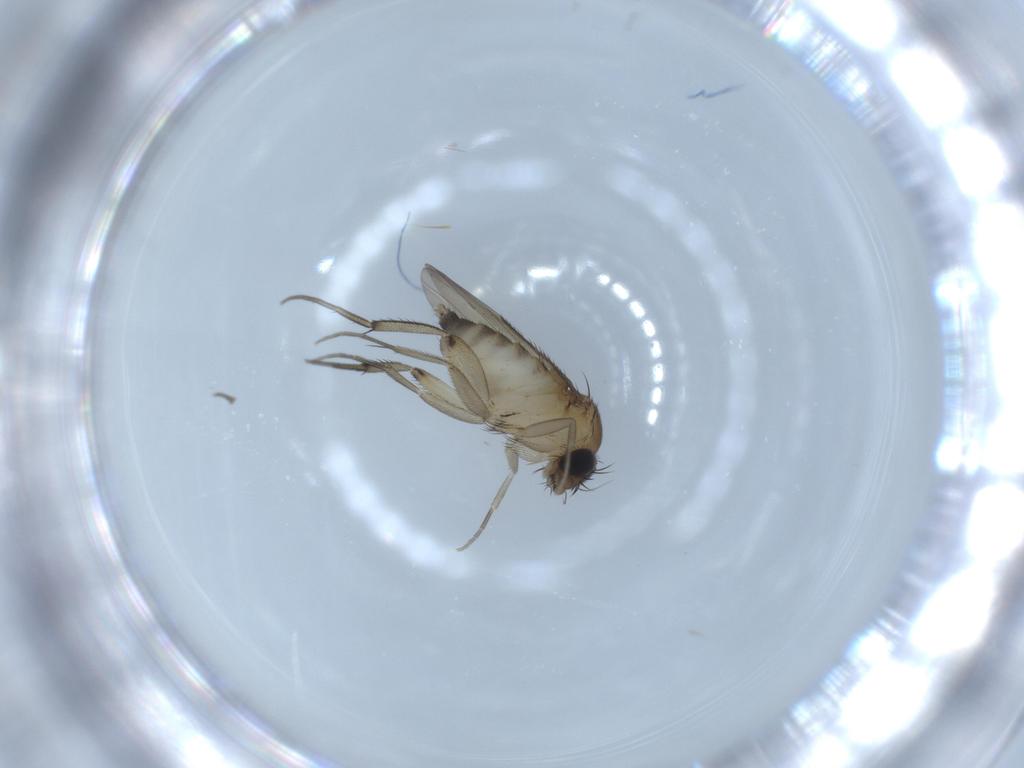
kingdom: Animalia
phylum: Arthropoda
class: Insecta
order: Diptera
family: Phoridae
